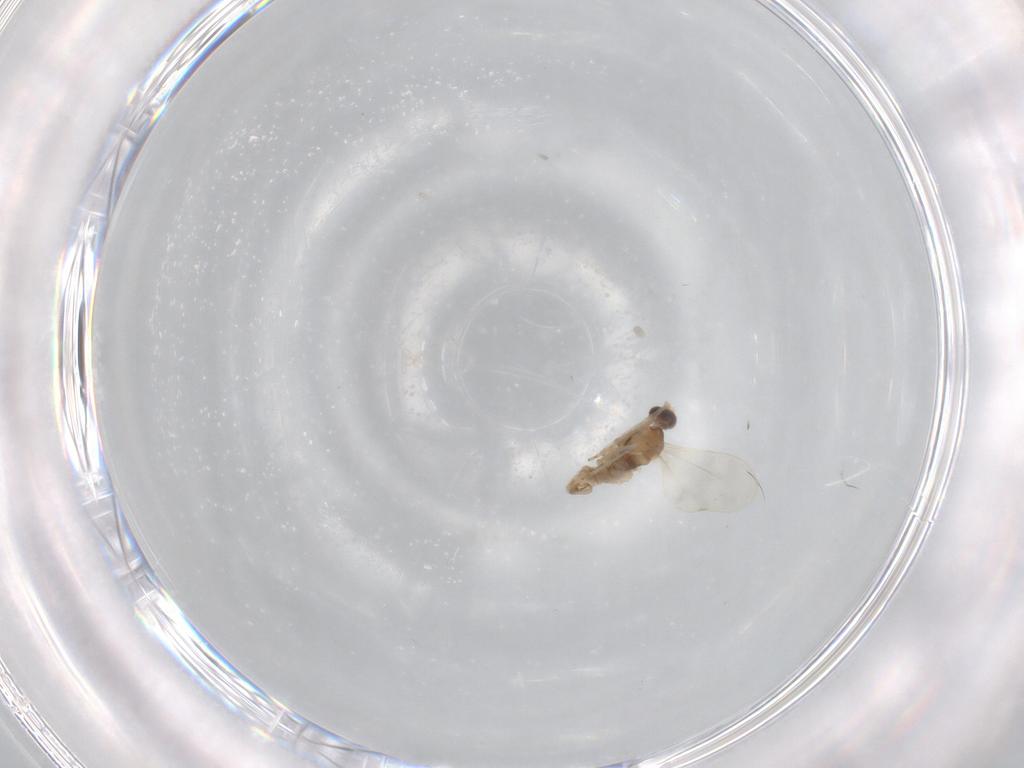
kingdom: Animalia
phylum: Arthropoda
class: Insecta
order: Diptera
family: Cecidomyiidae
